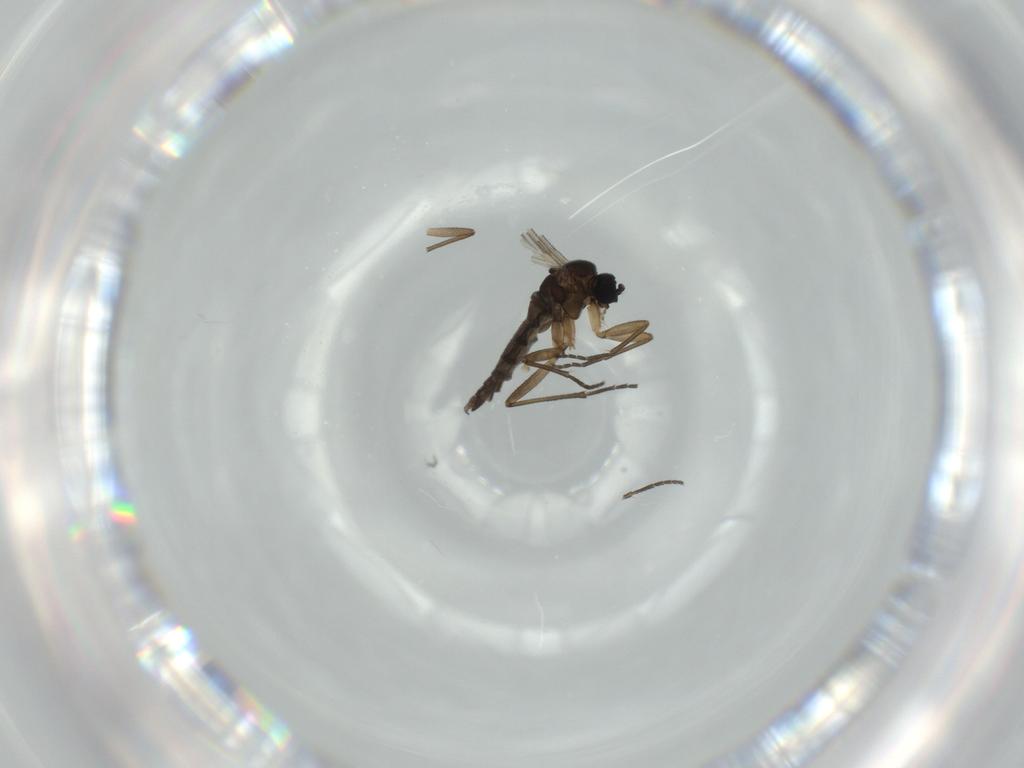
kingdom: Animalia
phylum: Arthropoda
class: Insecta
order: Diptera
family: Sciaridae
